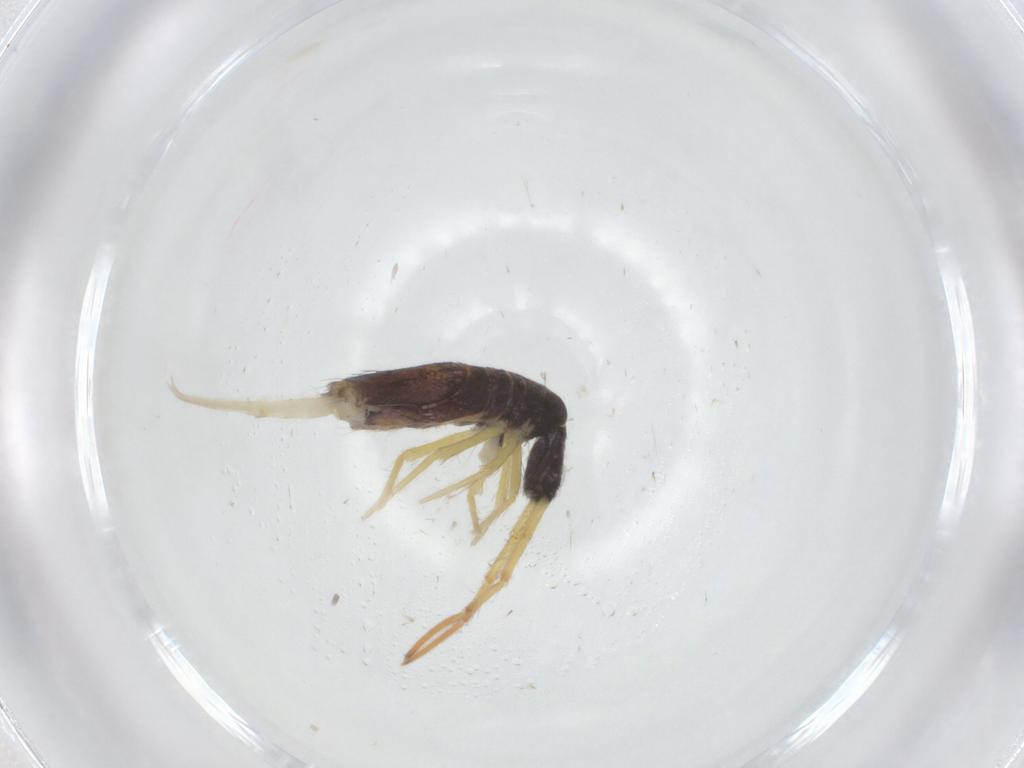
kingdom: Animalia
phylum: Arthropoda
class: Collembola
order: Entomobryomorpha
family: Entomobryidae
